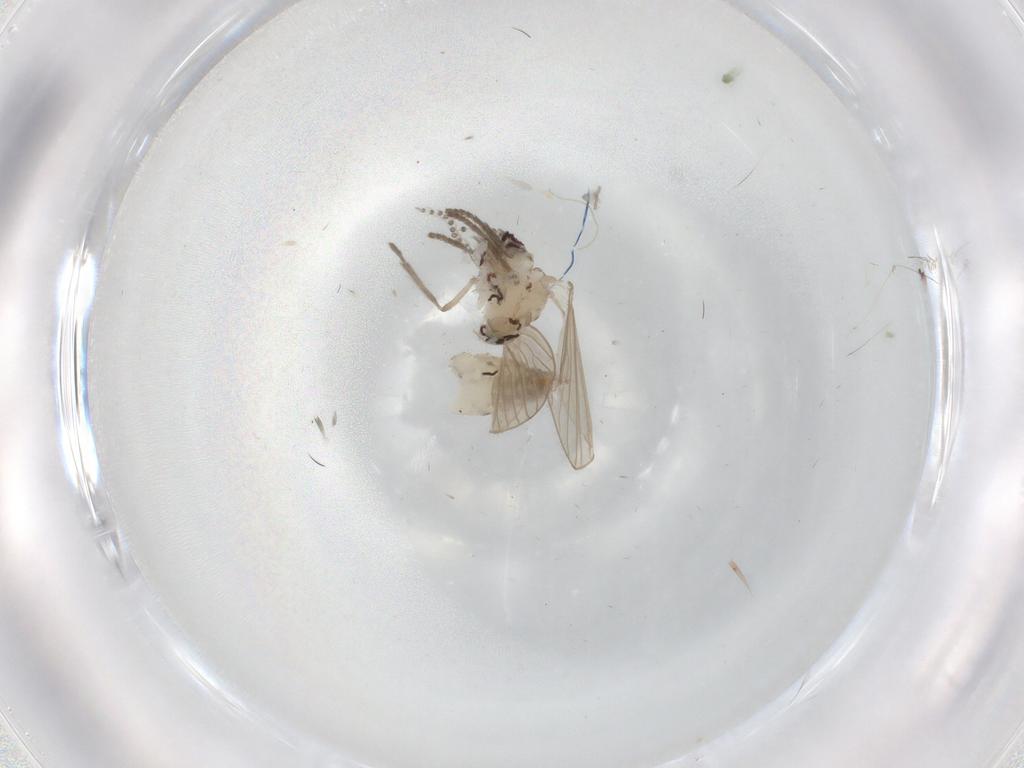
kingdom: Animalia
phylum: Arthropoda
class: Insecta
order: Diptera
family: Psychodidae
